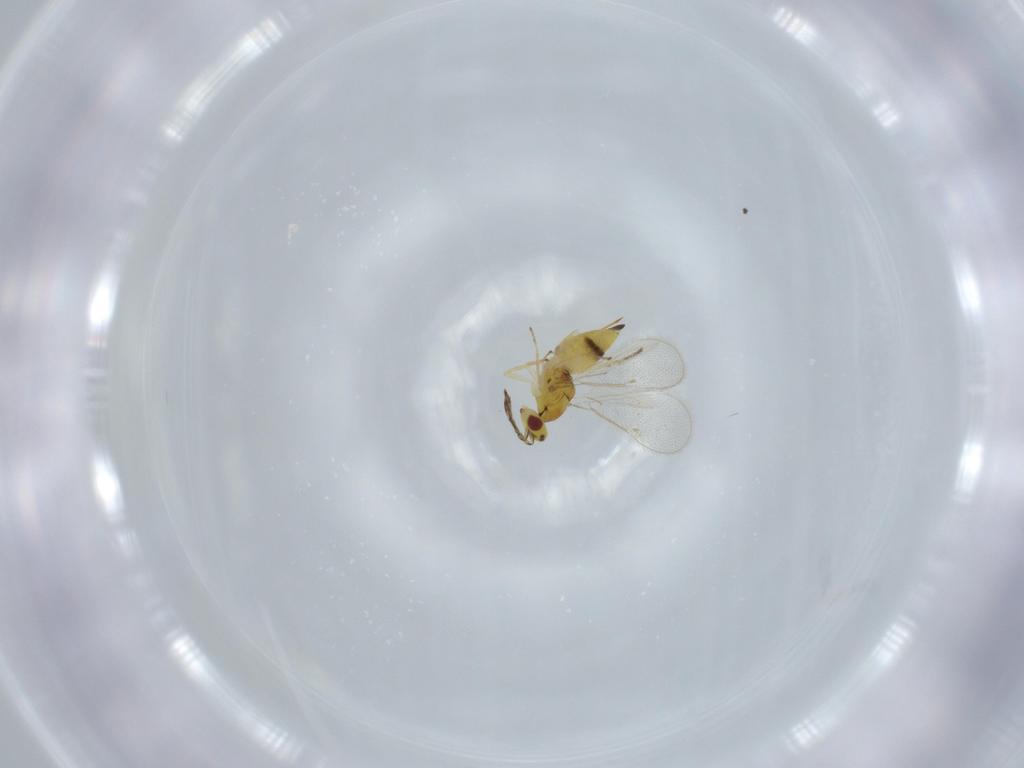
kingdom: Animalia
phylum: Arthropoda
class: Insecta
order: Hymenoptera
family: Eulophidae
